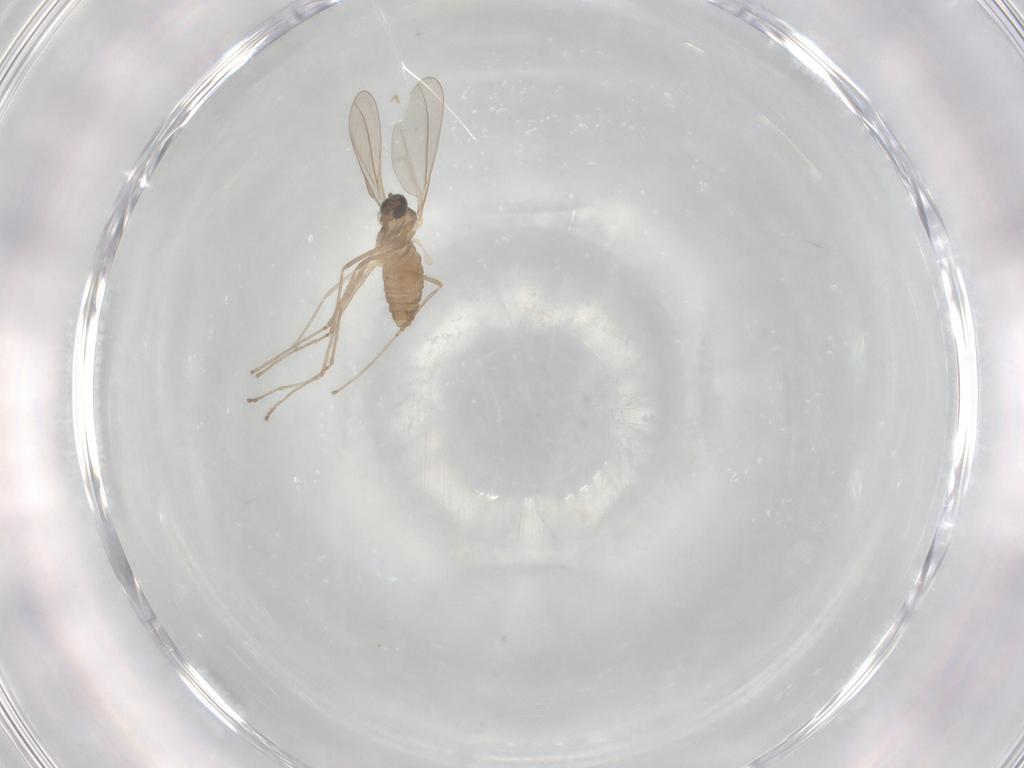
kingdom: Animalia
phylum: Arthropoda
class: Insecta
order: Diptera
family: Cecidomyiidae
